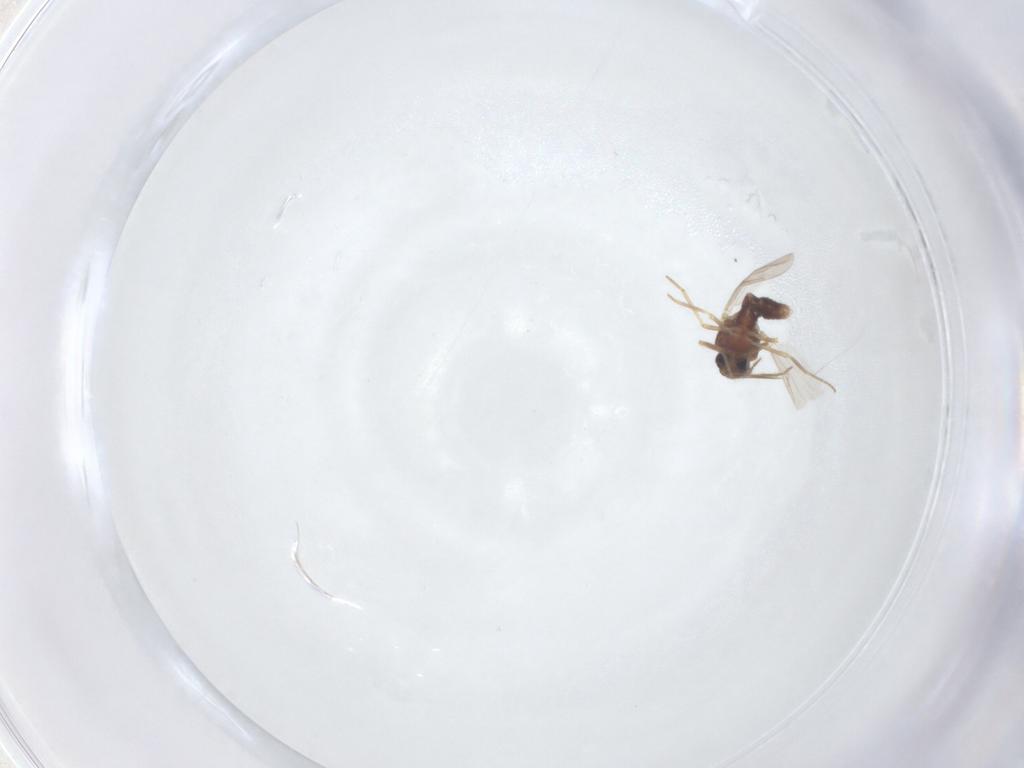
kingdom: Animalia
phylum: Arthropoda
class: Insecta
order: Diptera
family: Ceratopogonidae
